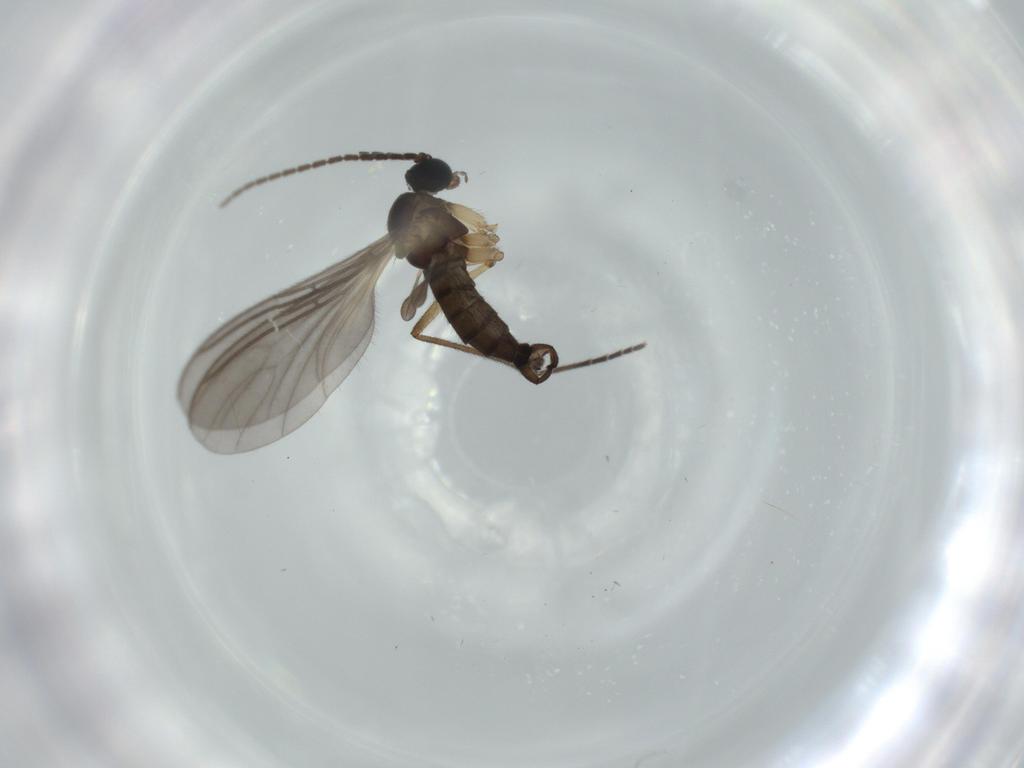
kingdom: Animalia
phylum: Arthropoda
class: Insecta
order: Diptera
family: Sciaridae
